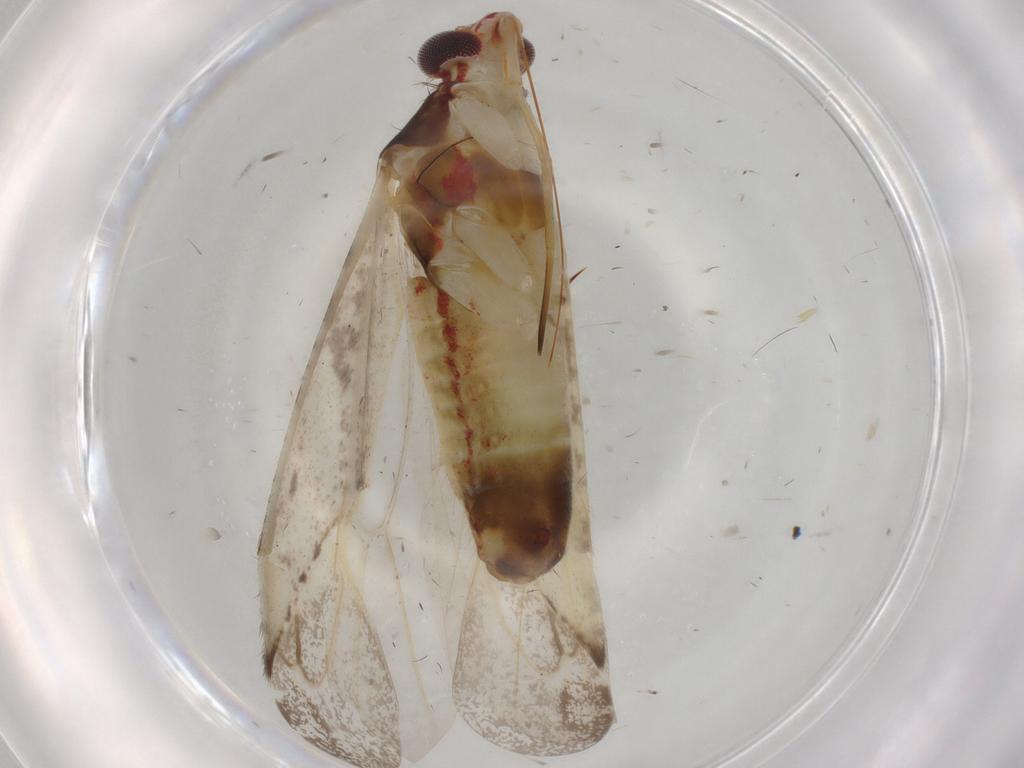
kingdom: Animalia
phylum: Arthropoda
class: Insecta
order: Hemiptera
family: Miridae
